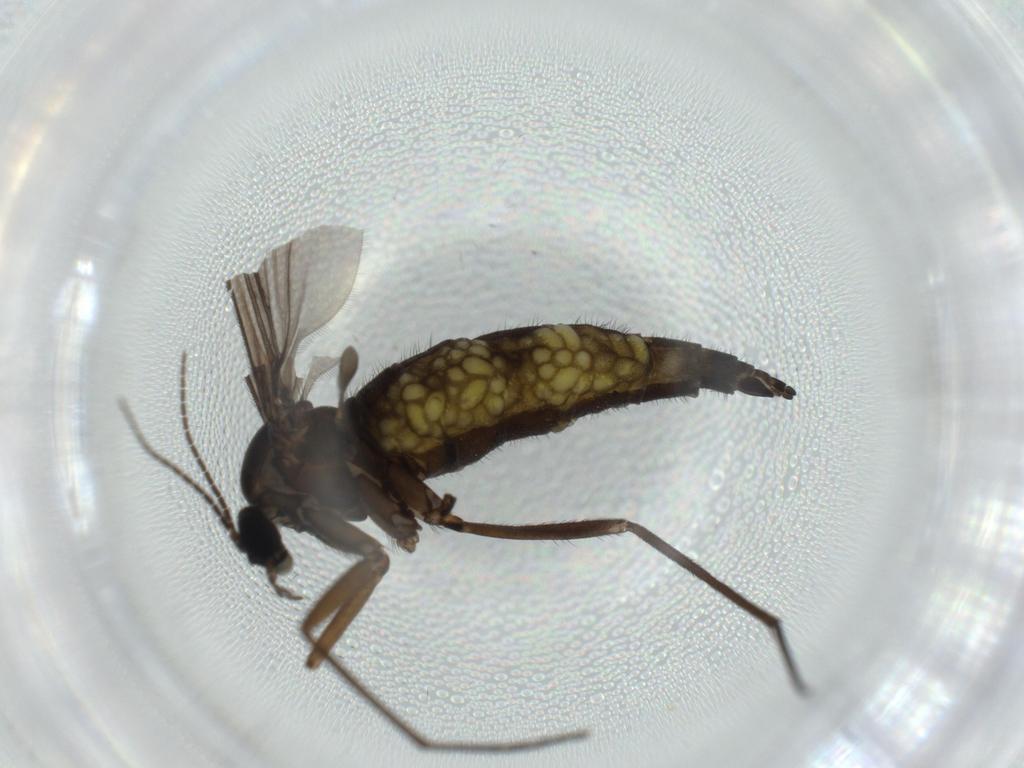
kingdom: Animalia
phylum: Arthropoda
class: Insecta
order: Diptera
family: Sciaridae
